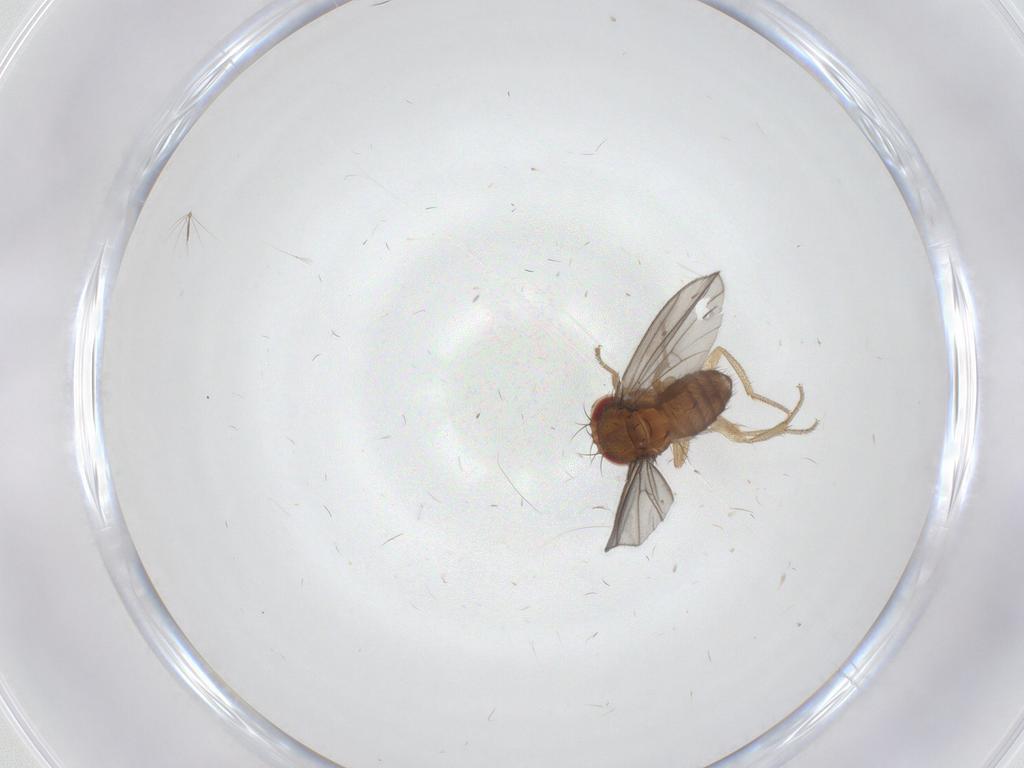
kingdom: Animalia
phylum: Arthropoda
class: Insecta
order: Diptera
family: Drosophilidae
